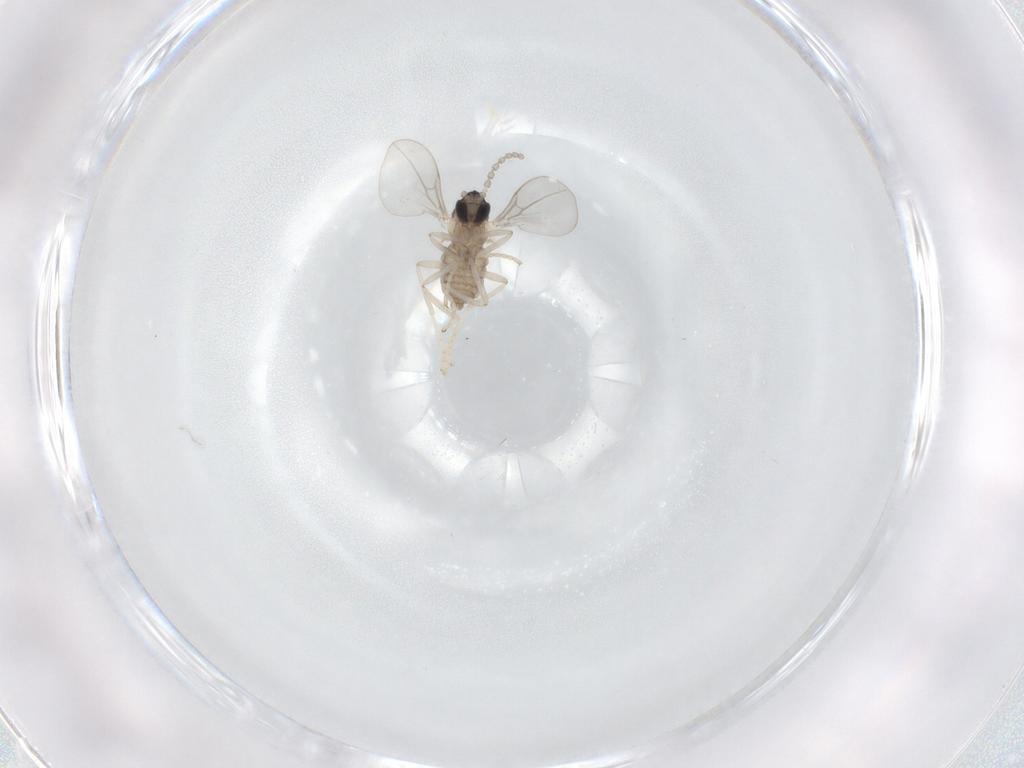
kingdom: Animalia
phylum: Arthropoda
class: Insecta
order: Diptera
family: Cecidomyiidae
